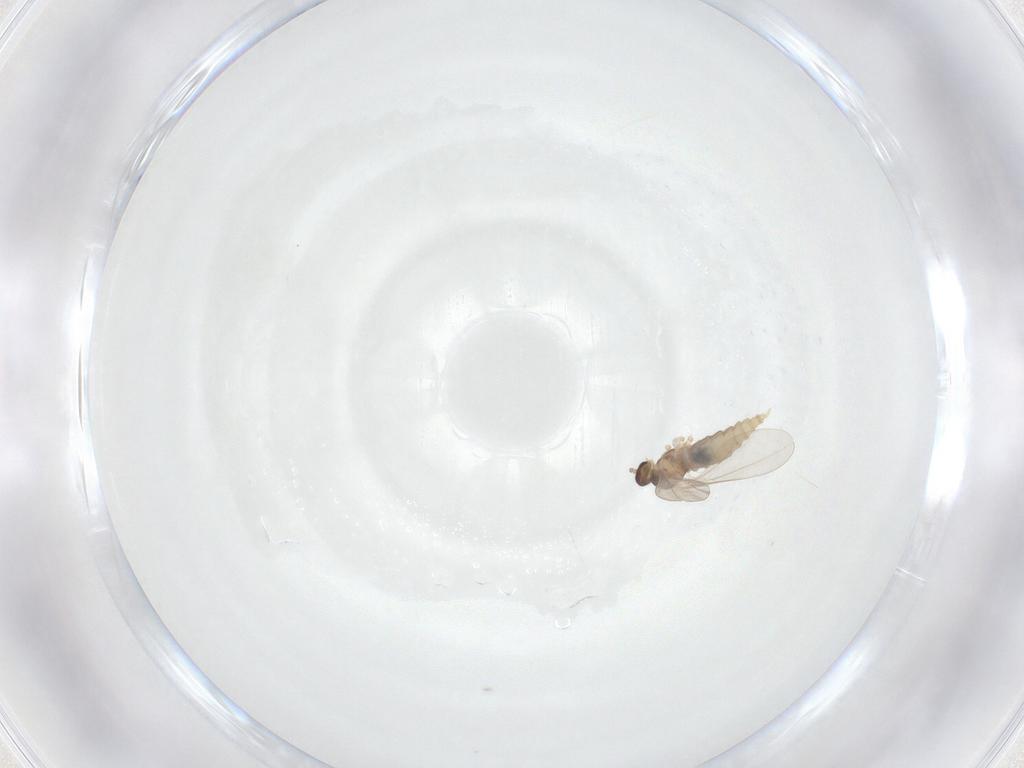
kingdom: Animalia
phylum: Arthropoda
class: Insecta
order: Diptera
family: Cecidomyiidae
